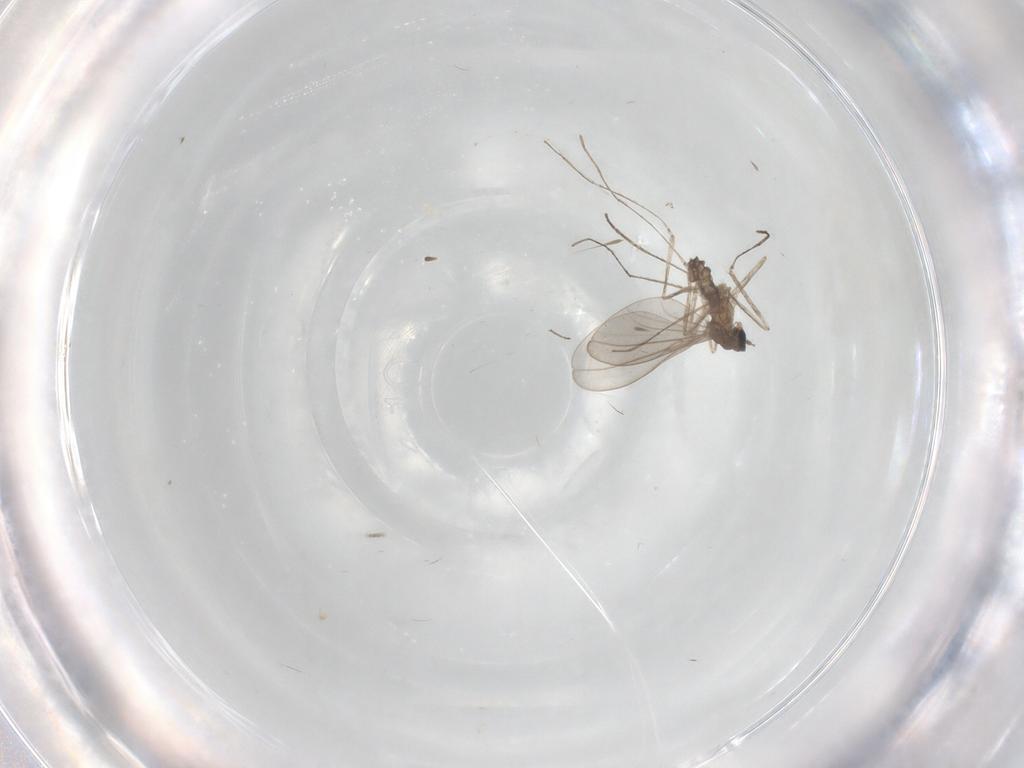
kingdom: Animalia
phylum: Arthropoda
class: Insecta
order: Diptera
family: Cecidomyiidae
